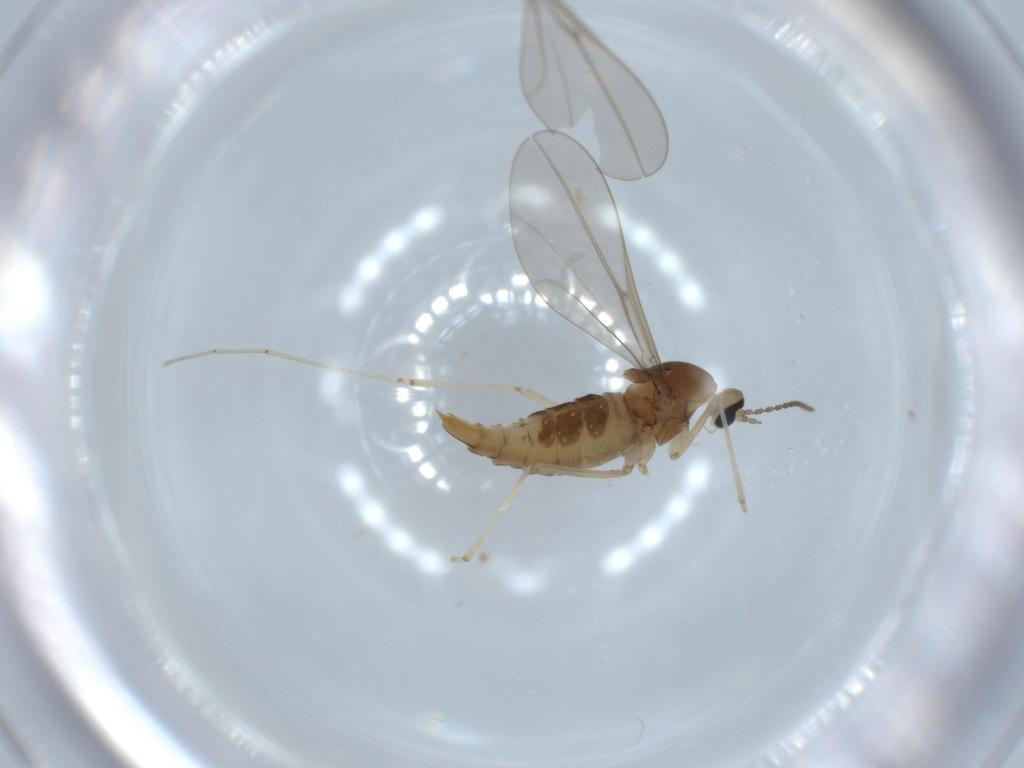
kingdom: Animalia
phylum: Arthropoda
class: Insecta
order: Diptera
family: Cecidomyiidae
